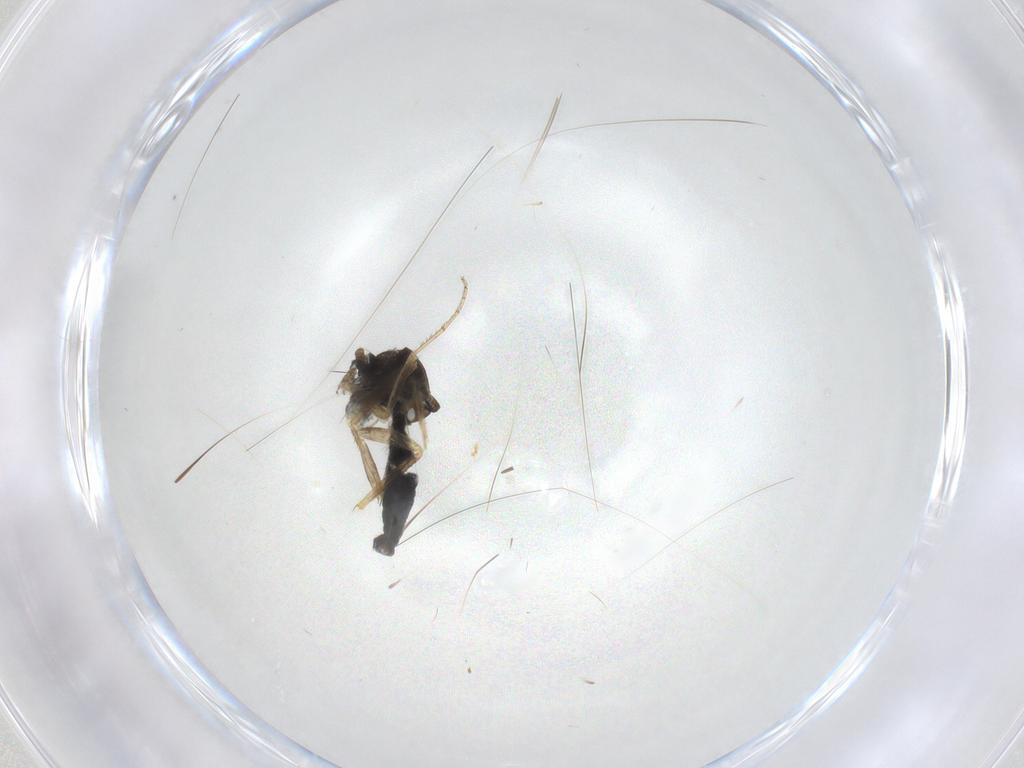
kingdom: Animalia
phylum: Arthropoda
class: Insecta
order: Diptera
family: Ceratopogonidae
